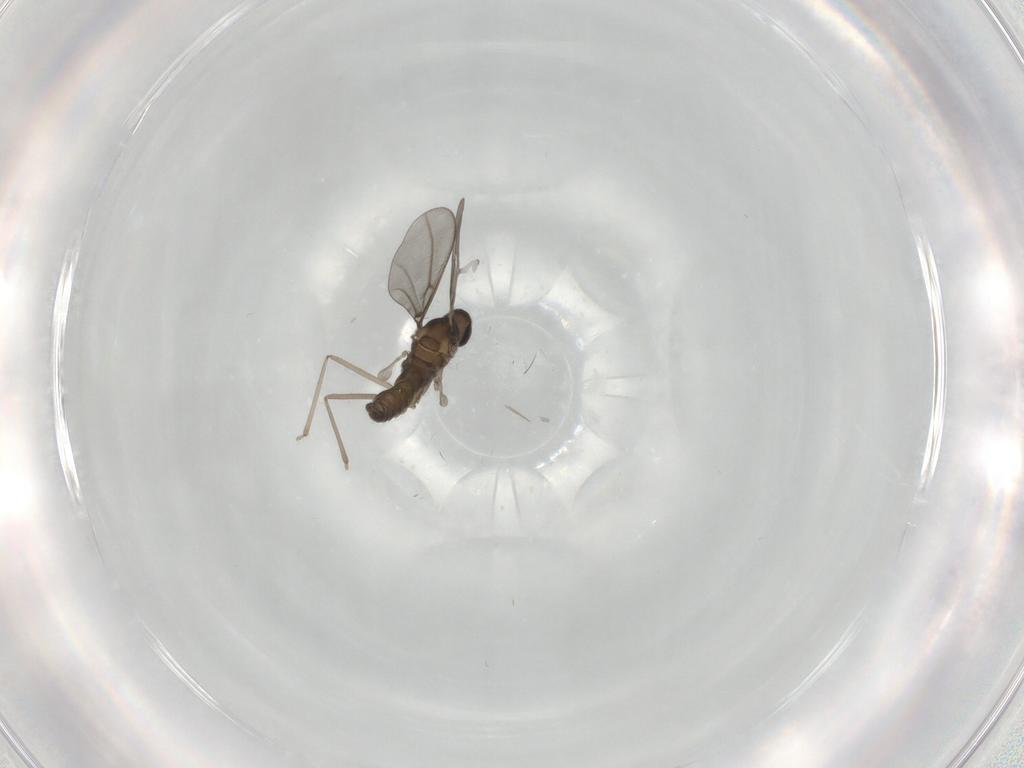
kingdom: Animalia
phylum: Arthropoda
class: Insecta
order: Diptera
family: Cecidomyiidae
